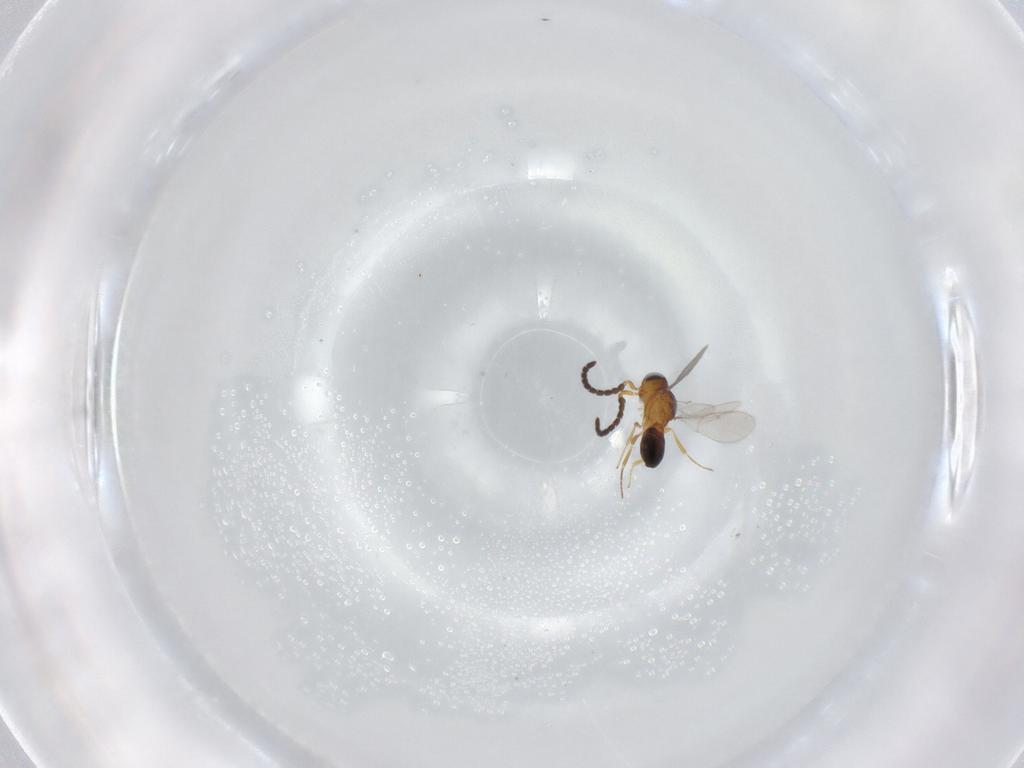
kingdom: Animalia
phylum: Arthropoda
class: Insecta
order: Hymenoptera
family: Scelionidae
